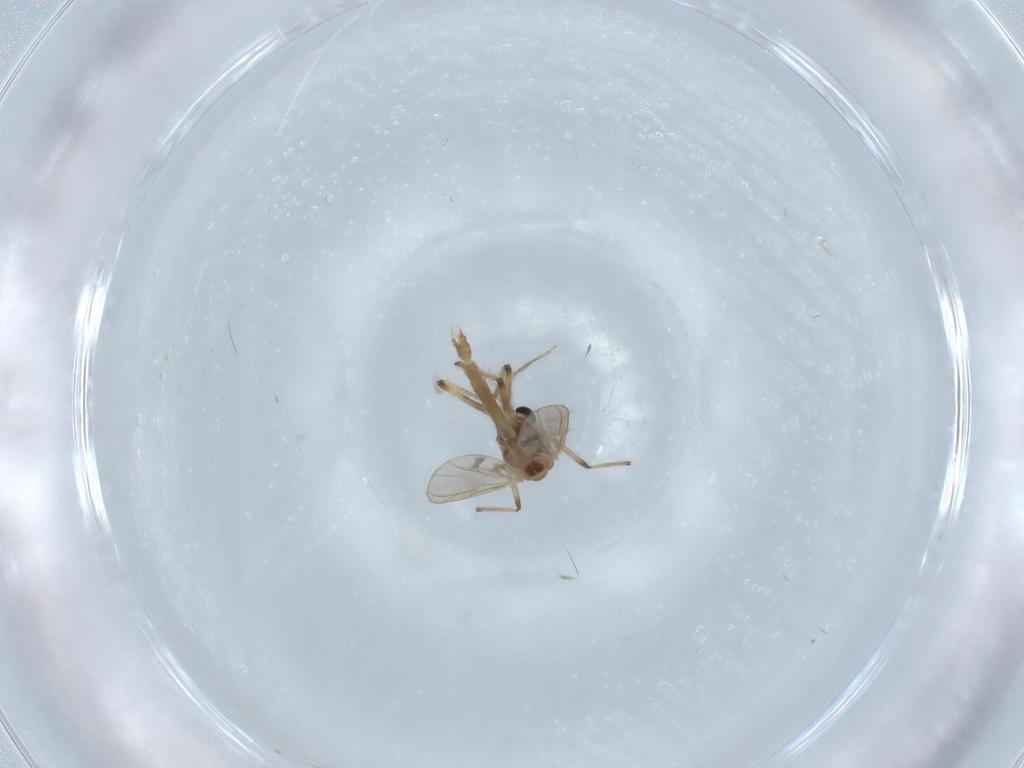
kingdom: Animalia
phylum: Arthropoda
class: Insecta
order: Diptera
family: Chironomidae
